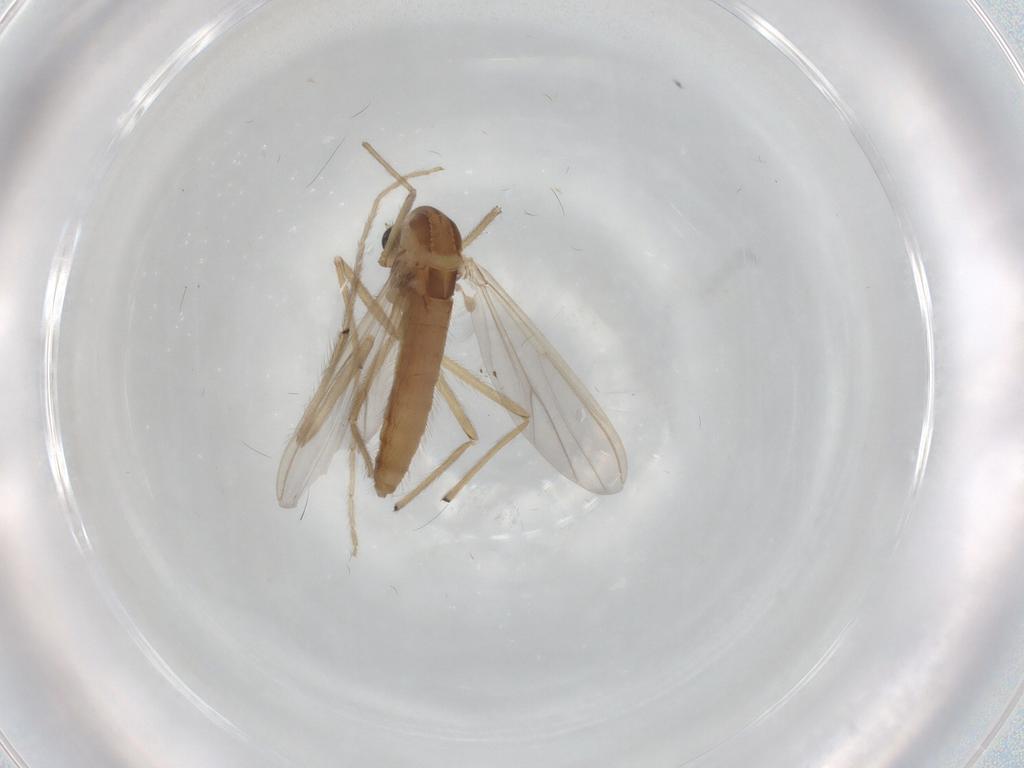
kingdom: Animalia
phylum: Arthropoda
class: Insecta
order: Diptera
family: Chironomidae
